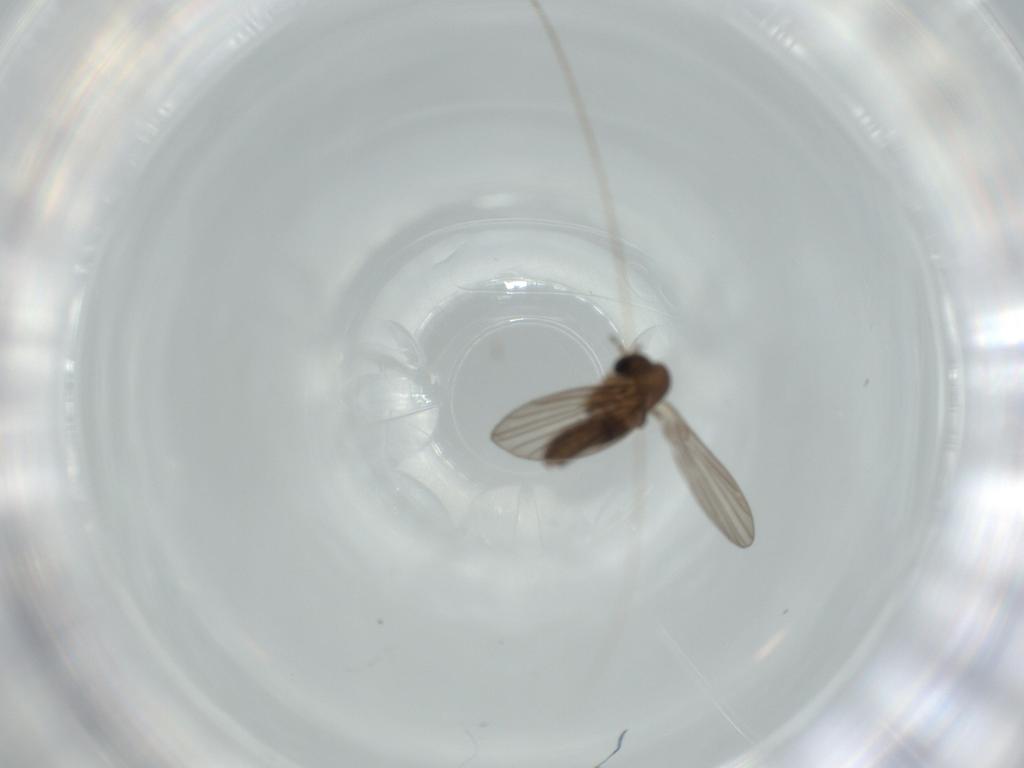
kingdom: Animalia
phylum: Arthropoda
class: Insecta
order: Diptera
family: Psychodidae
